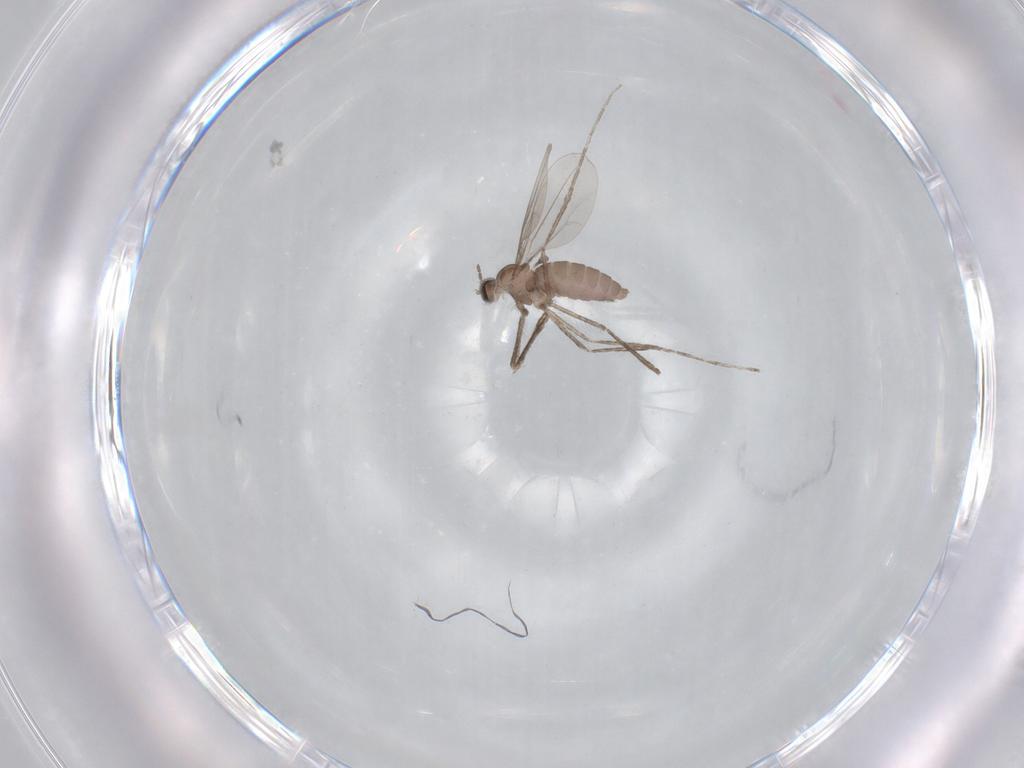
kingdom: Animalia
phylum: Arthropoda
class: Insecta
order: Diptera
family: Cecidomyiidae
